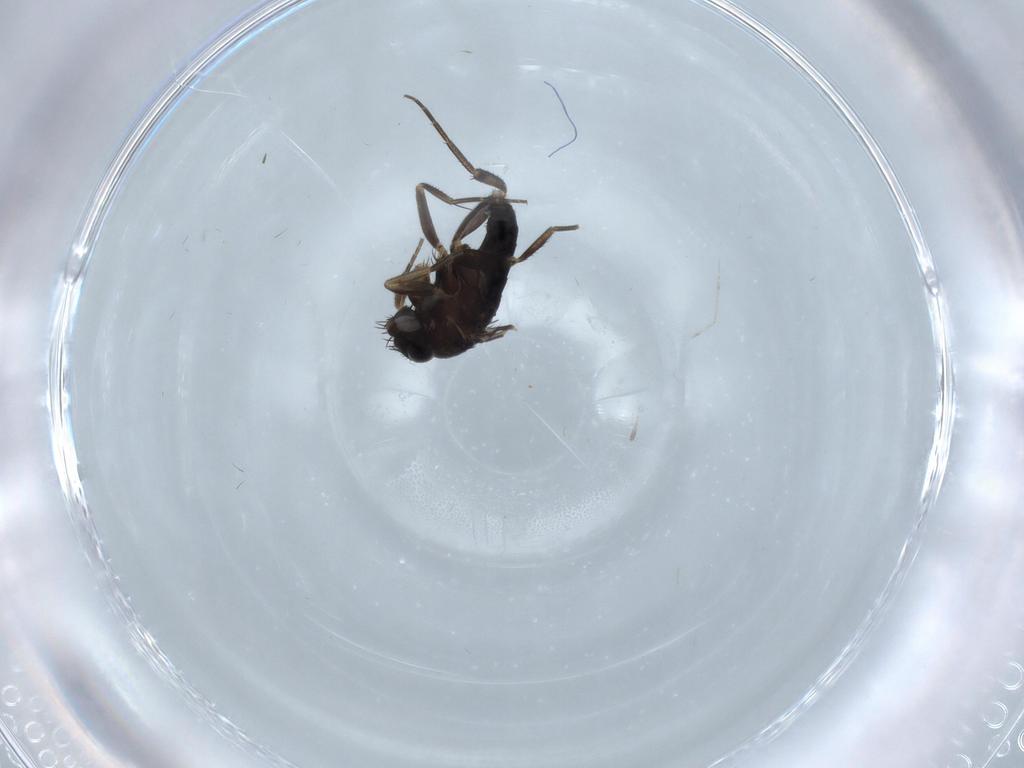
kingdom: Animalia
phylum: Arthropoda
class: Insecta
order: Diptera
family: Phoridae
